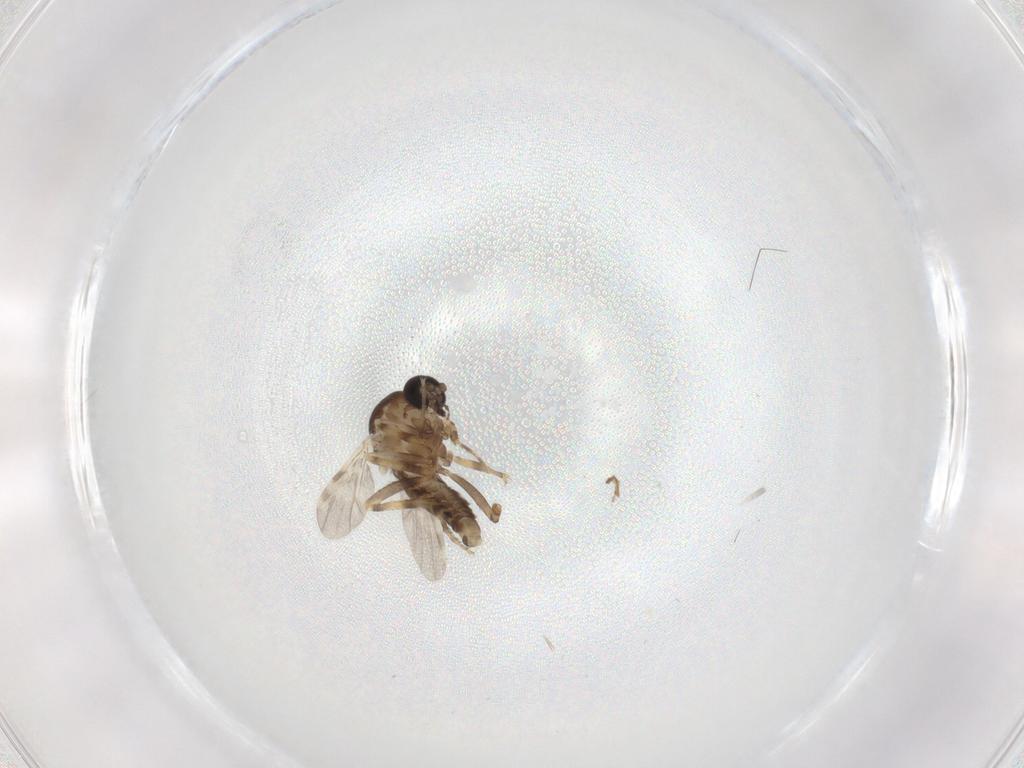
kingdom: Animalia
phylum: Arthropoda
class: Insecta
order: Diptera
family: Ceratopogonidae
